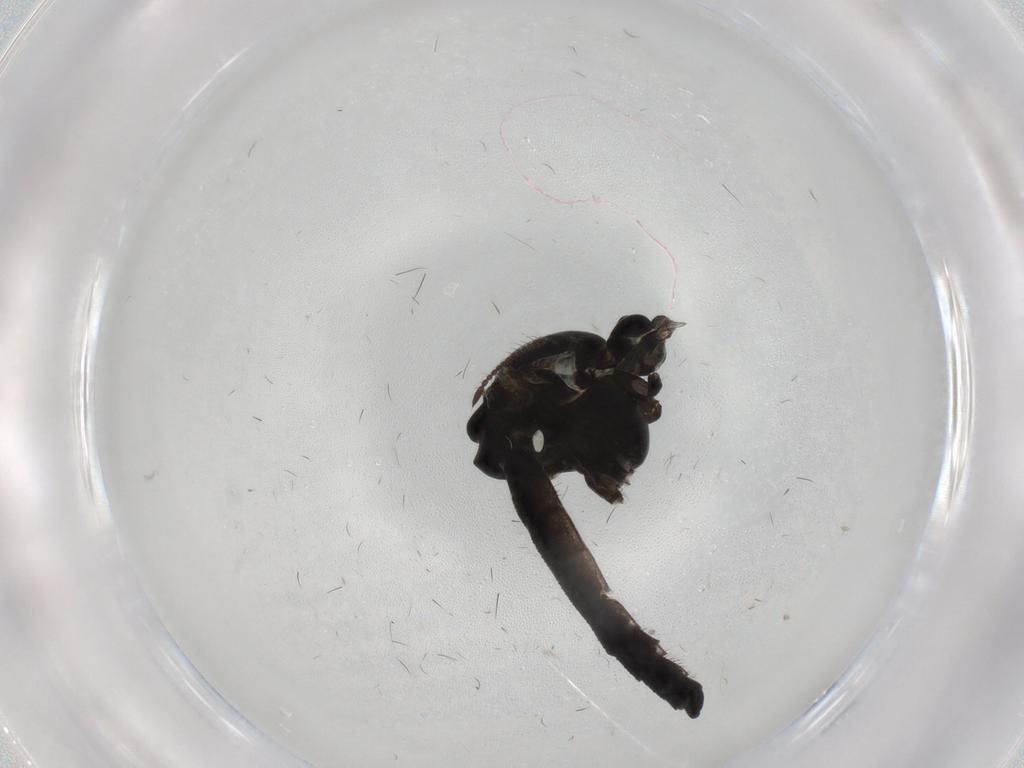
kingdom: Animalia
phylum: Arthropoda
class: Insecta
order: Diptera
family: Chironomidae
